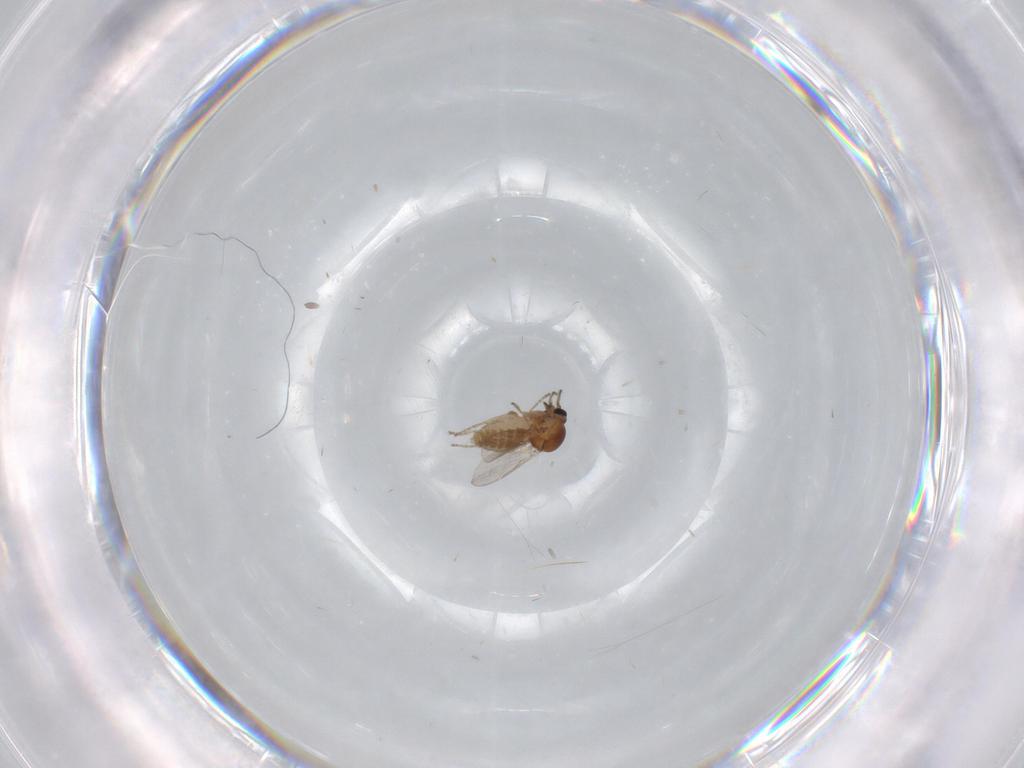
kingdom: Animalia
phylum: Arthropoda
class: Insecta
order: Diptera
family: Ceratopogonidae
